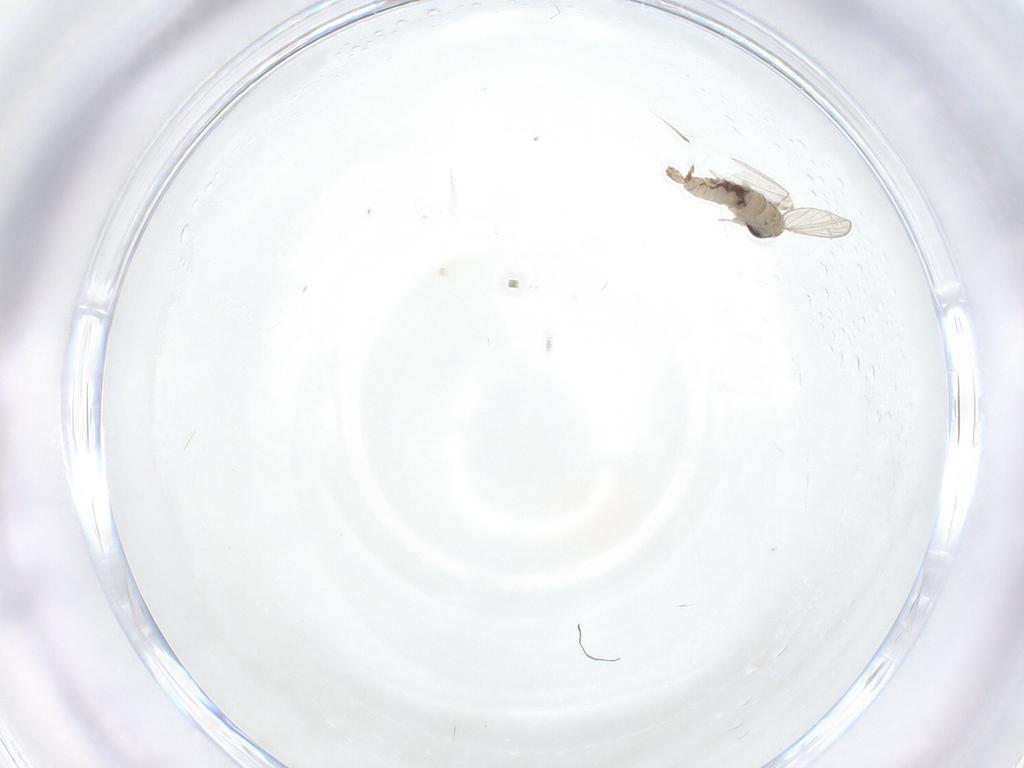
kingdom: Animalia
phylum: Arthropoda
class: Insecta
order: Diptera
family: Psychodidae
